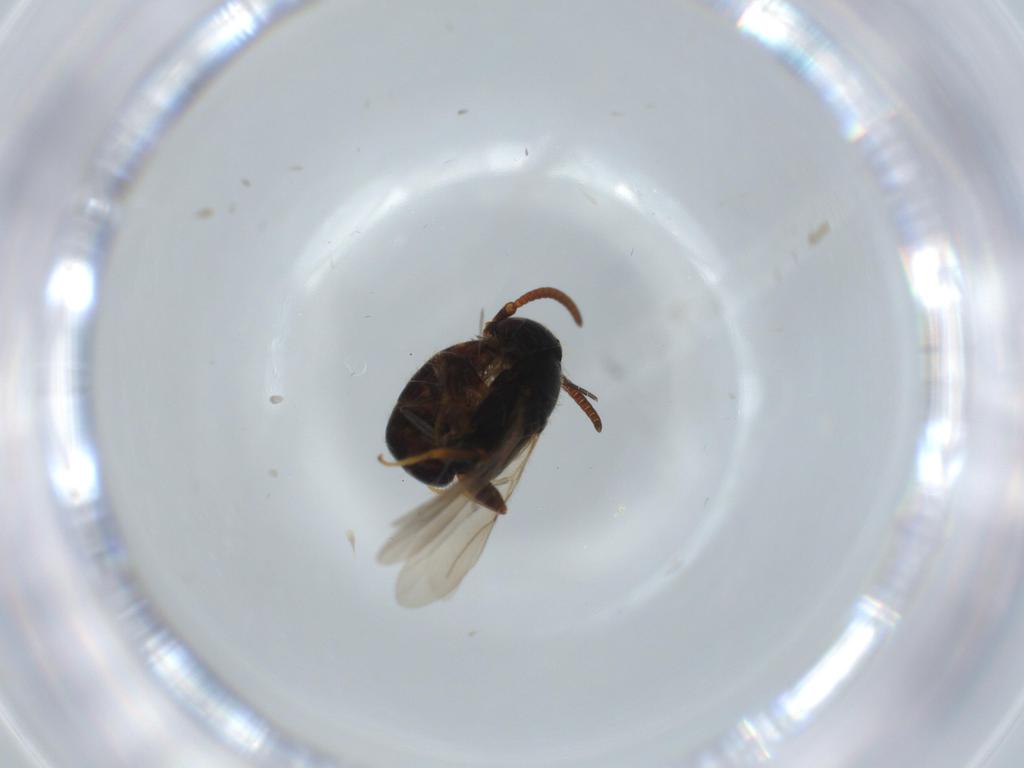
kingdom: Animalia
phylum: Arthropoda
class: Insecta
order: Hymenoptera
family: Bethylidae
